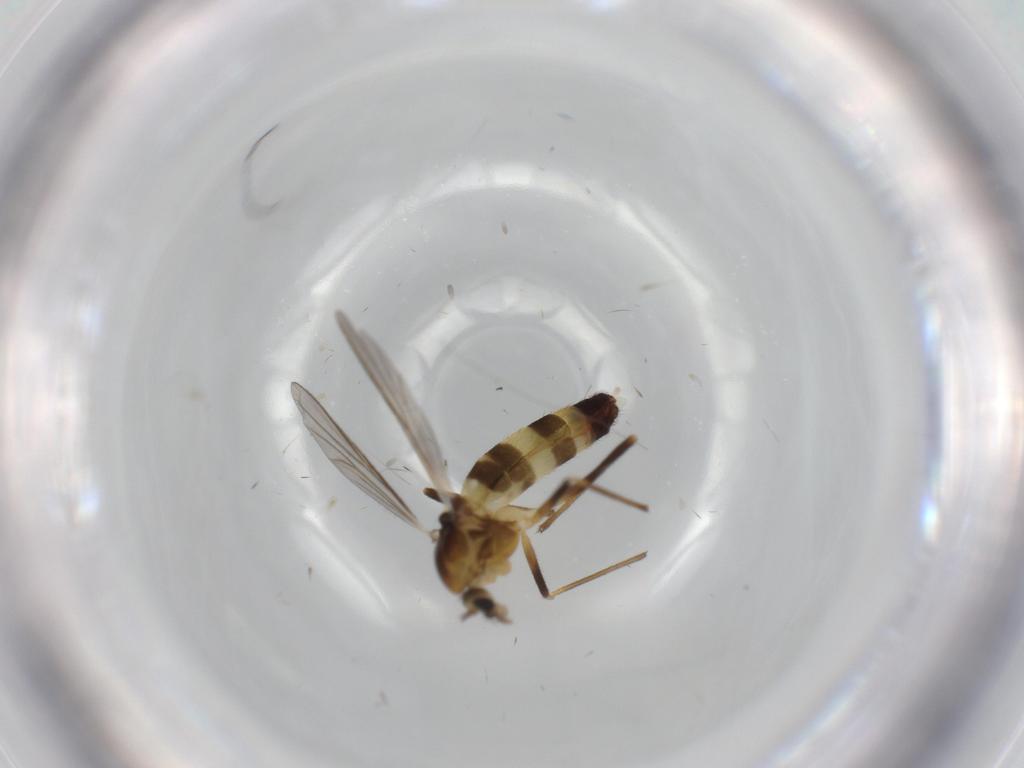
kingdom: Animalia
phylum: Arthropoda
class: Insecta
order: Diptera
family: Chironomidae
